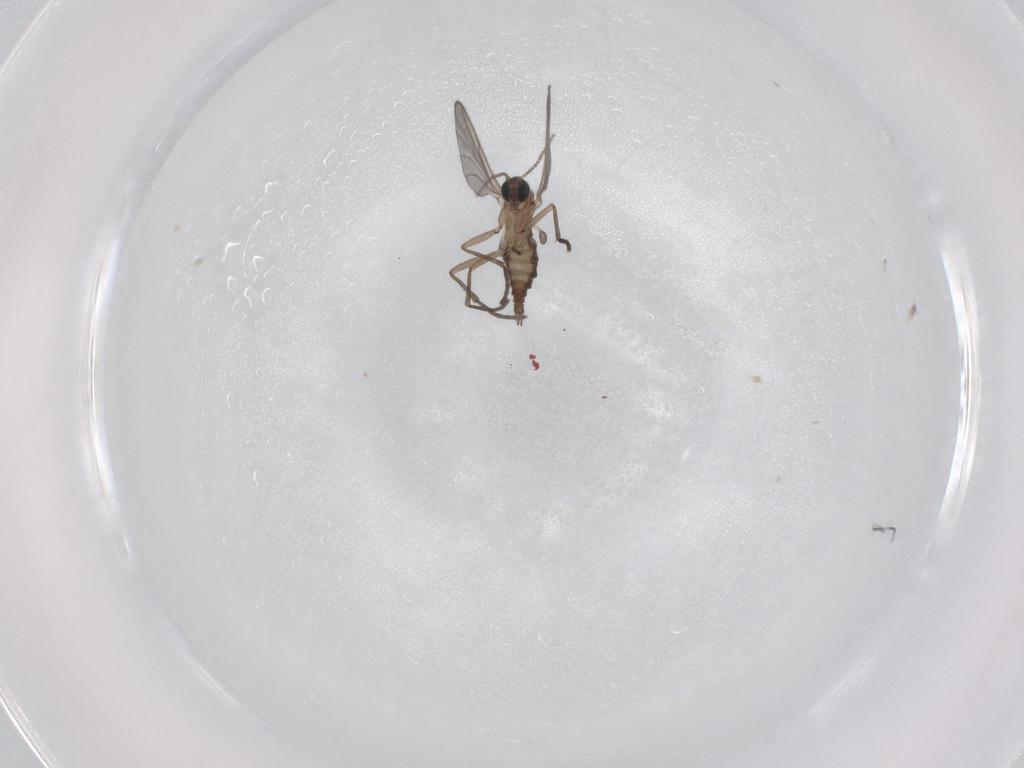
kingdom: Animalia
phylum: Arthropoda
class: Insecta
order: Diptera
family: Sciaridae
